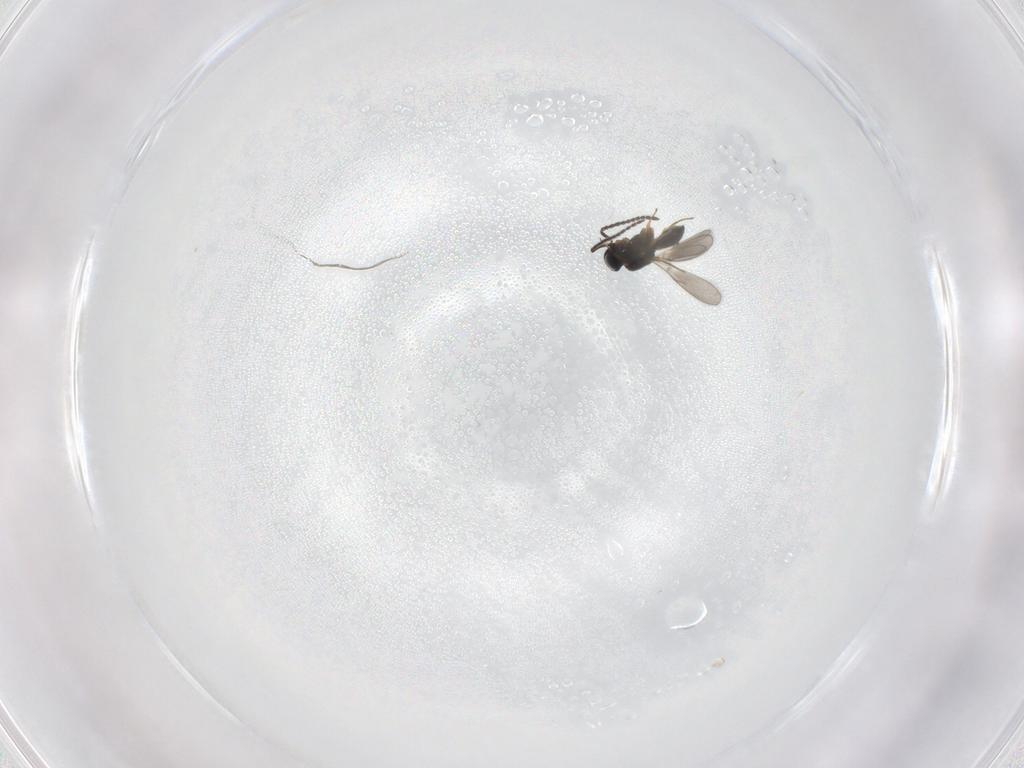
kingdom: Animalia
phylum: Arthropoda
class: Insecta
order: Hymenoptera
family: Scelionidae
